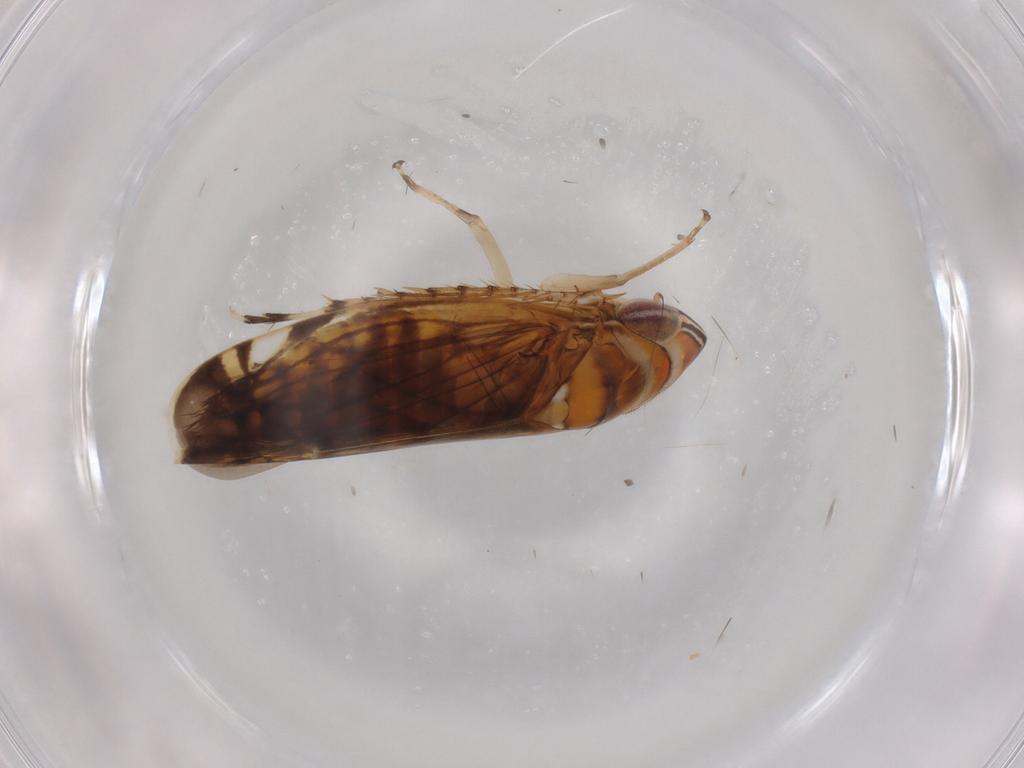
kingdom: Animalia
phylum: Arthropoda
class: Insecta
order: Hemiptera
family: Cicadellidae
